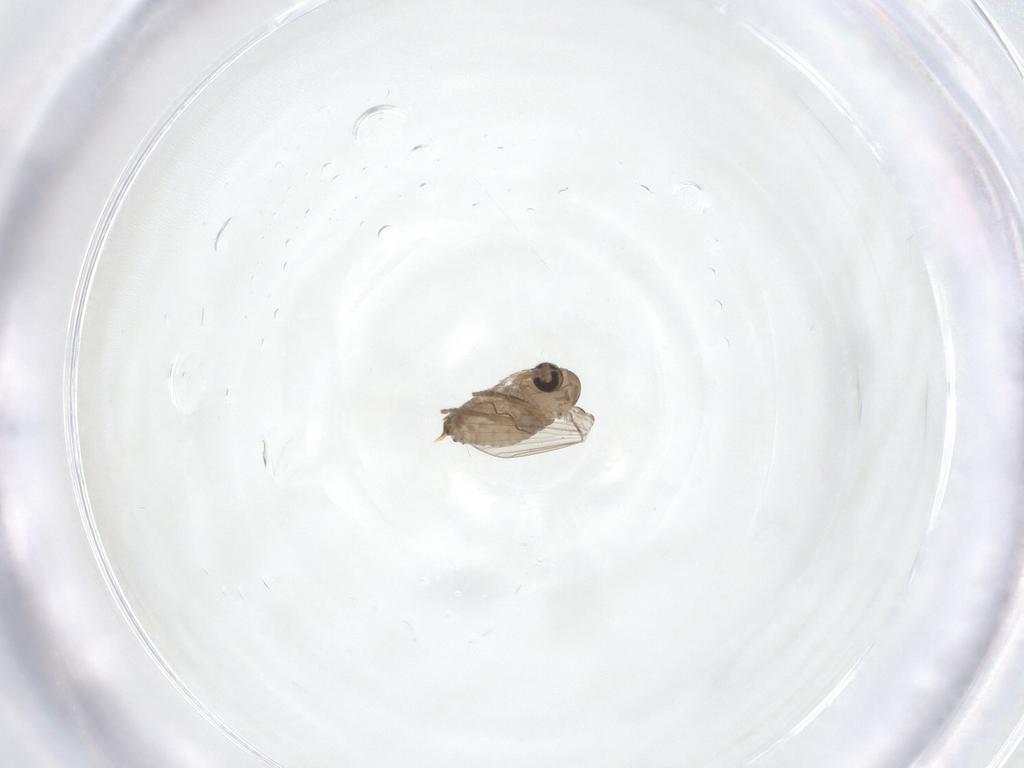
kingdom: Animalia
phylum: Arthropoda
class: Insecta
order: Diptera
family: Psychodidae
